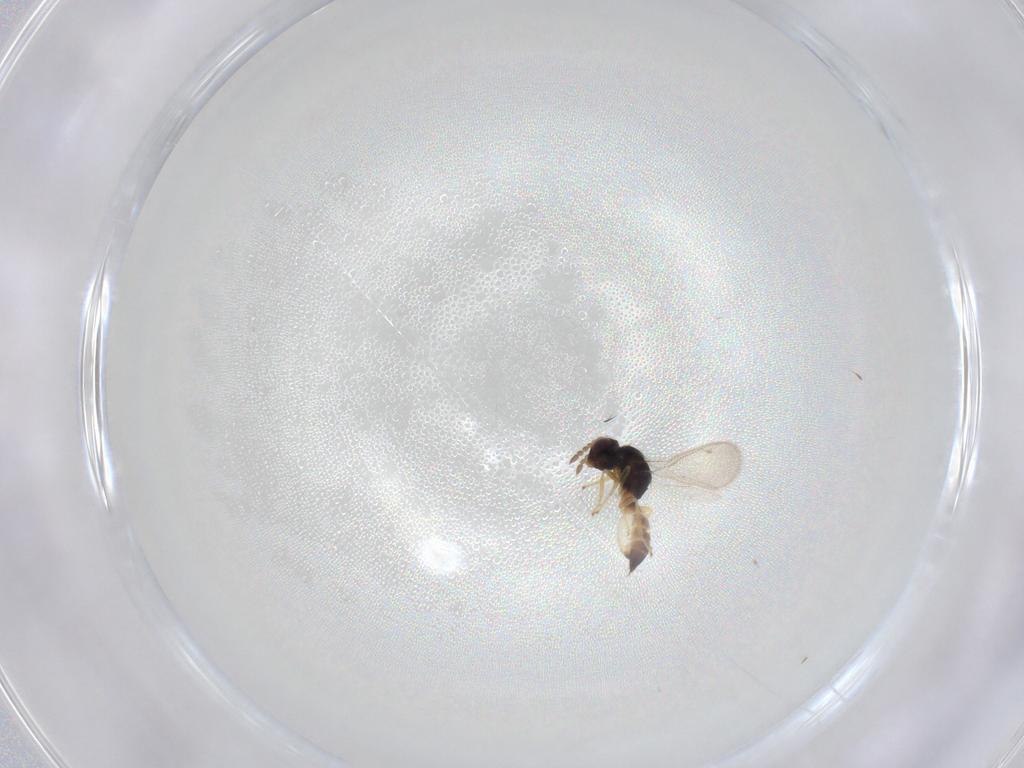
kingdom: Animalia
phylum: Arthropoda
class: Insecta
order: Hymenoptera
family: Eulophidae
